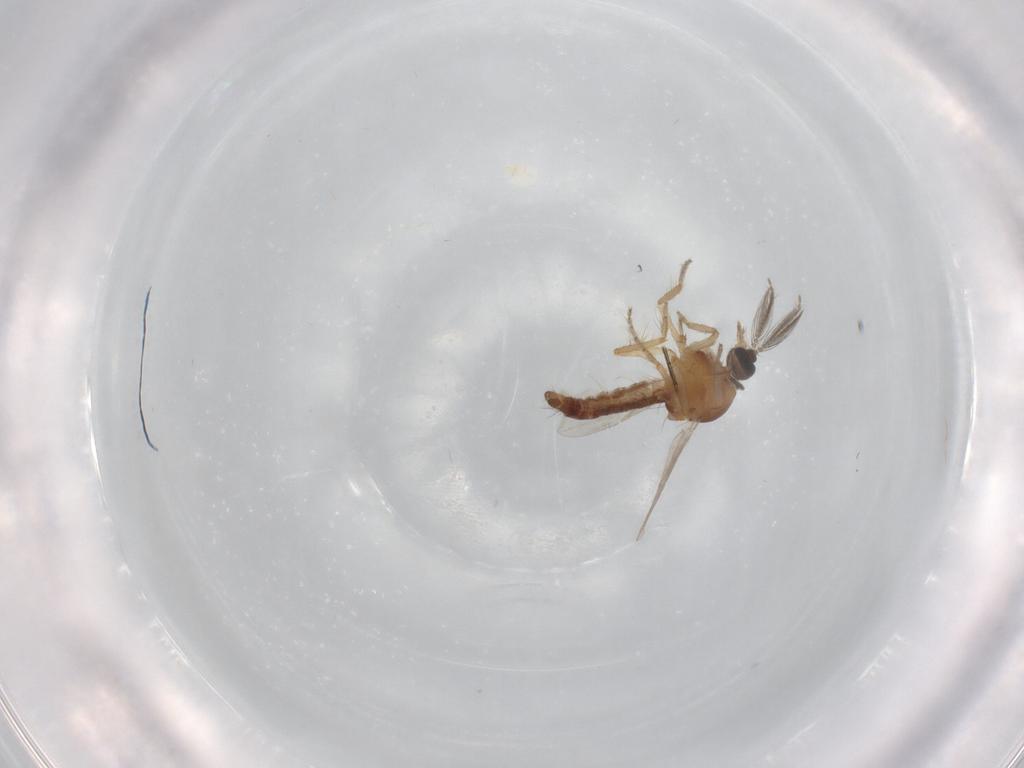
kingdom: Animalia
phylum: Arthropoda
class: Insecta
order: Diptera
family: Ceratopogonidae
